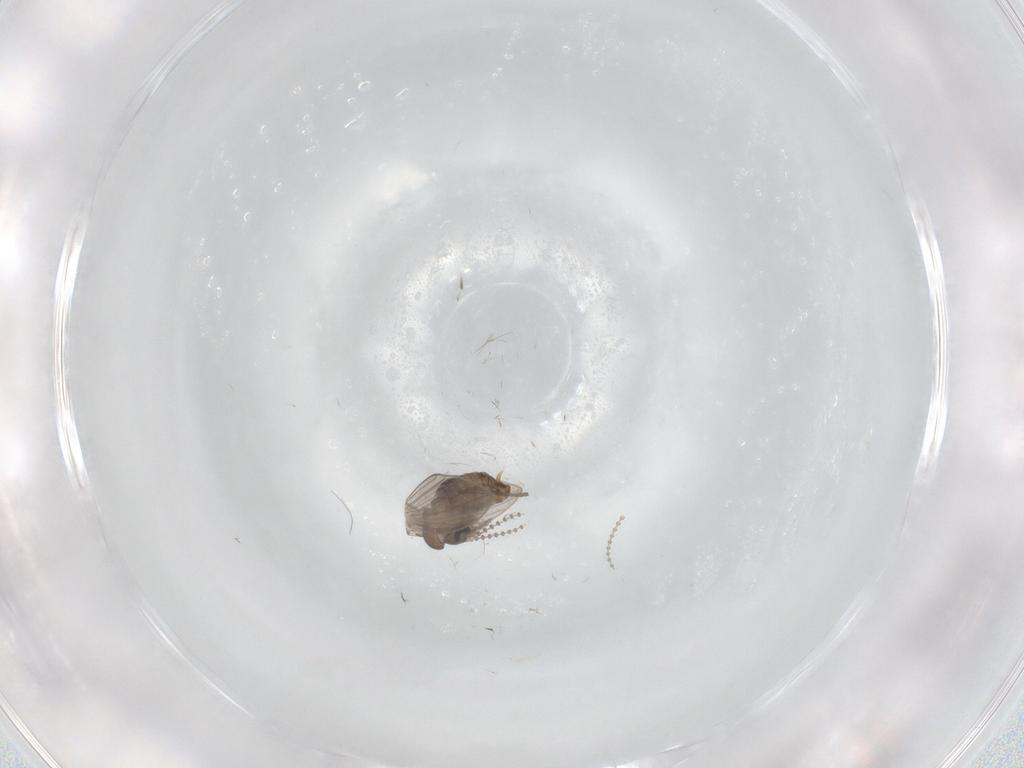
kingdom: Animalia
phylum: Arthropoda
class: Insecta
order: Diptera
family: Psychodidae
